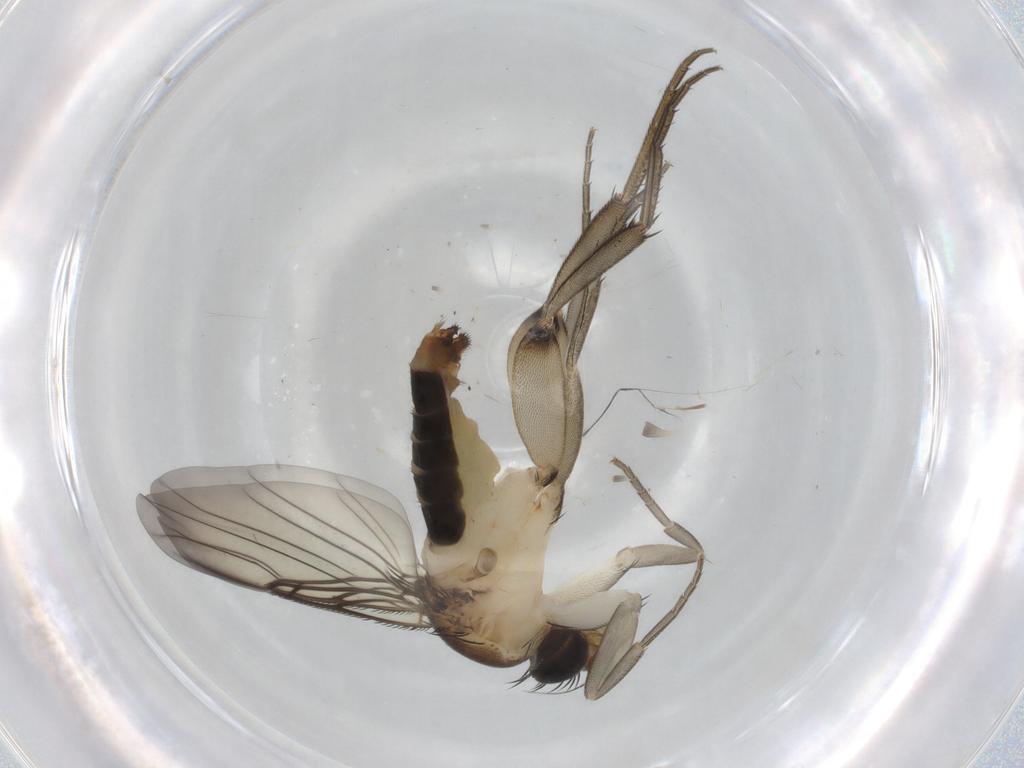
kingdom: Animalia
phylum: Arthropoda
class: Insecta
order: Diptera
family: Phoridae
